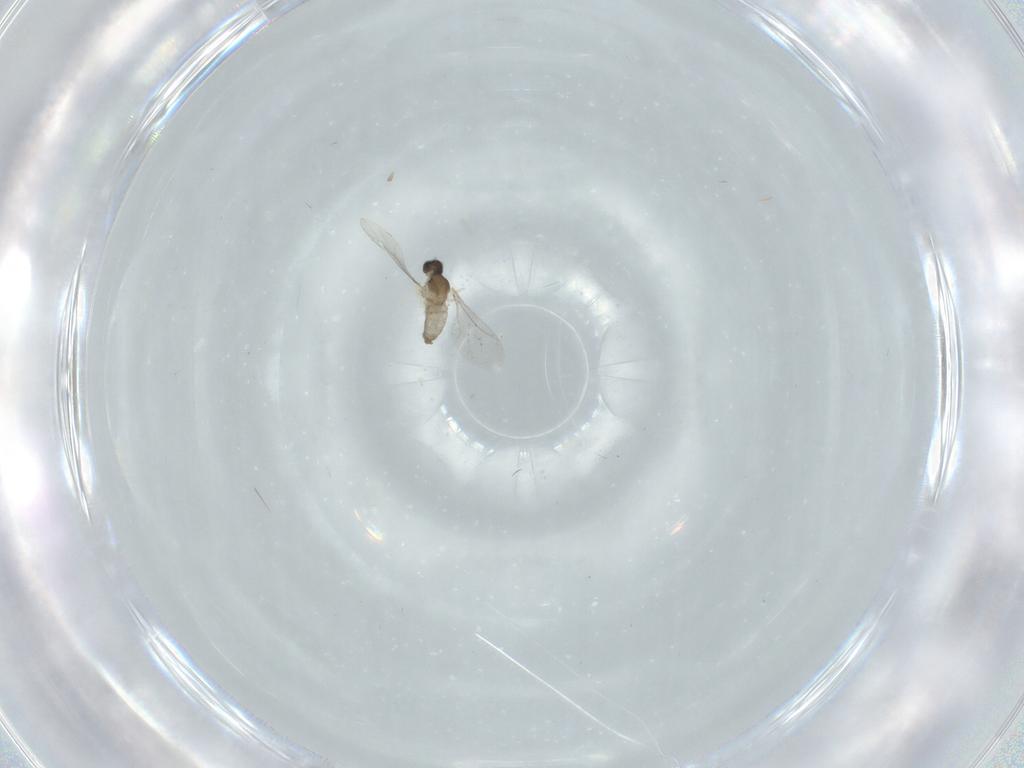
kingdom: Animalia
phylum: Arthropoda
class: Insecta
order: Diptera
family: Cecidomyiidae
